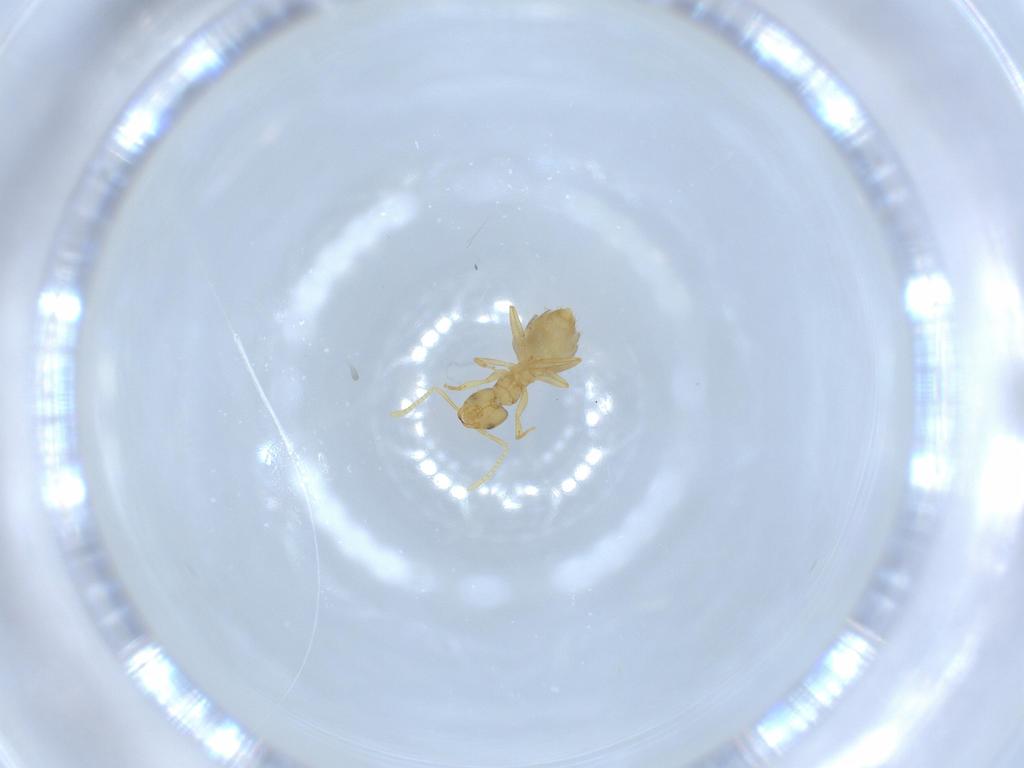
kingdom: Animalia
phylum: Arthropoda
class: Insecta
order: Hymenoptera
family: Formicidae
